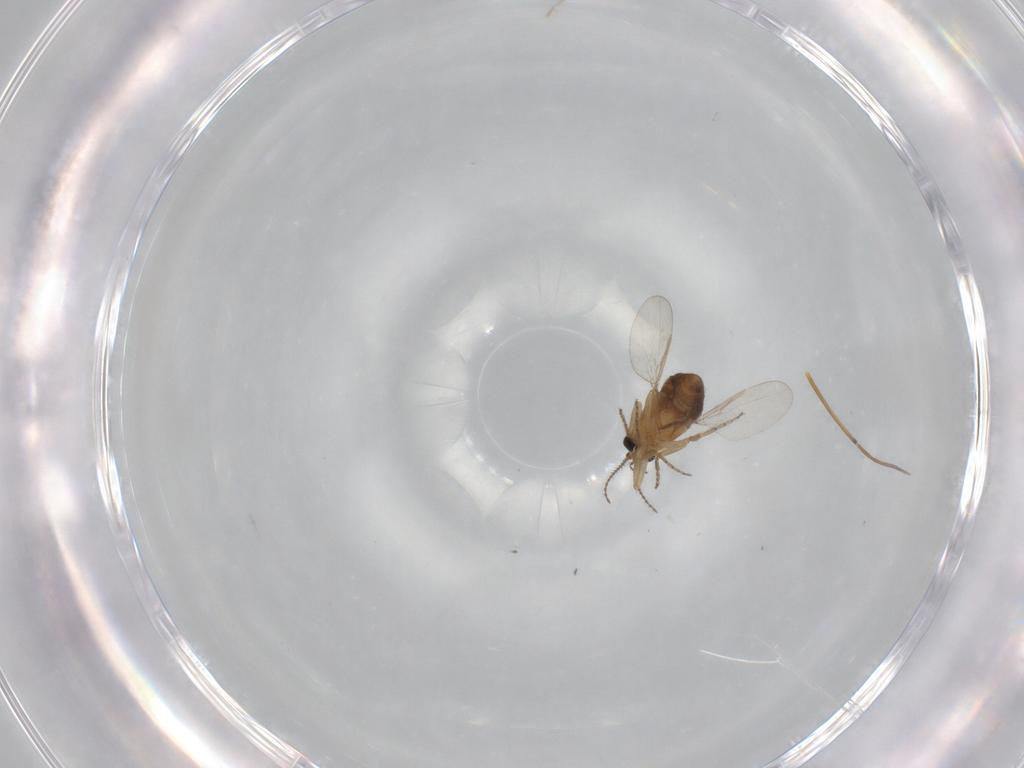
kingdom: Animalia
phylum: Arthropoda
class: Insecta
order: Diptera
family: Ceratopogonidae
